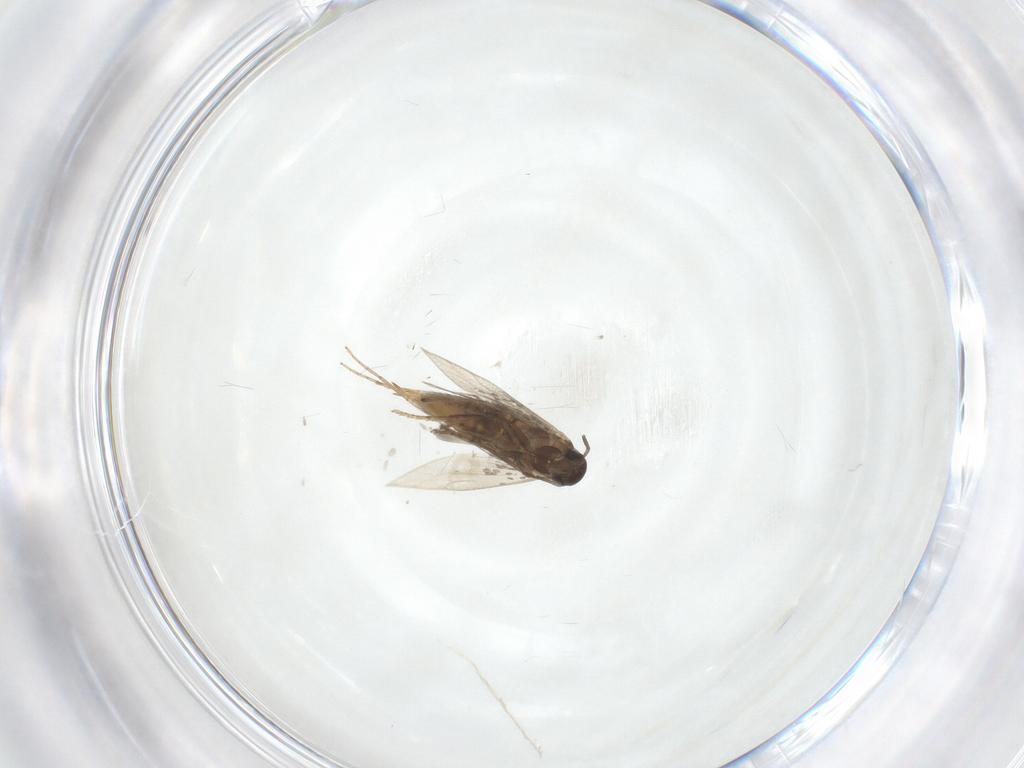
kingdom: Animalia
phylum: Arthropoda
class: Insecta
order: Lepidoptera
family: Heliozelidae
